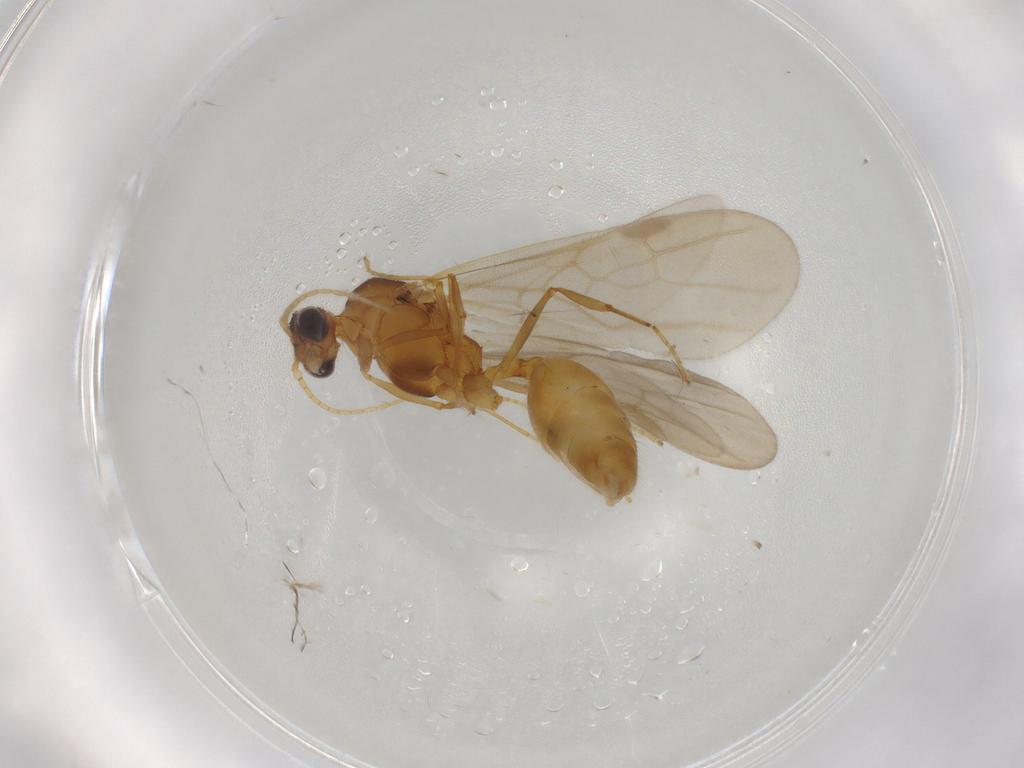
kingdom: Animalia
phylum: Arthropoda
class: Insecta
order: Hymenoptera
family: Formicidae
